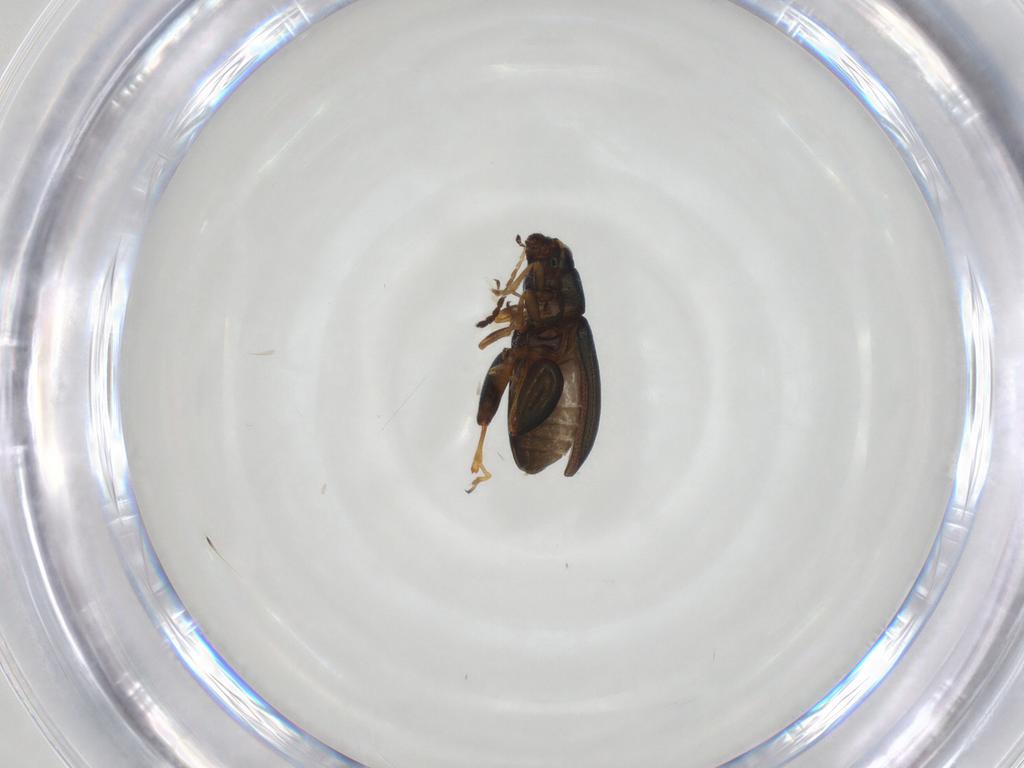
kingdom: Animalia
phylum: Arthropoda
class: Insecta
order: Coleoptera
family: Chrysomelidae
